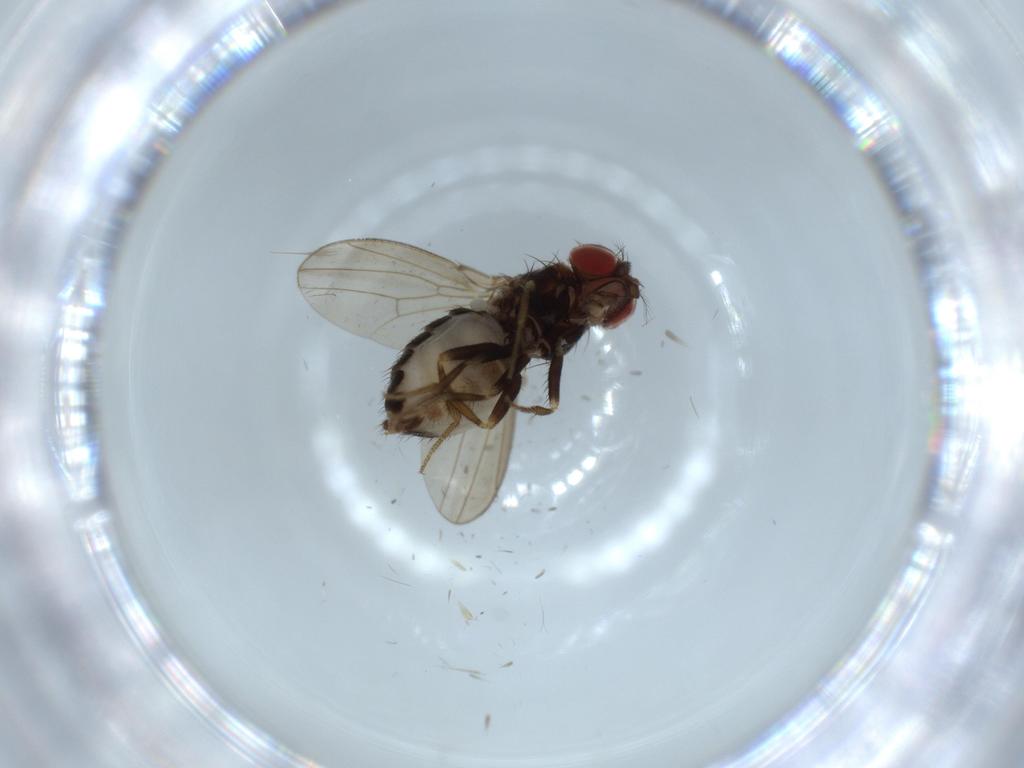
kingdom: Animalia
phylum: Arthropoda
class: Insecta
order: Diptera
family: Drosophilidae
